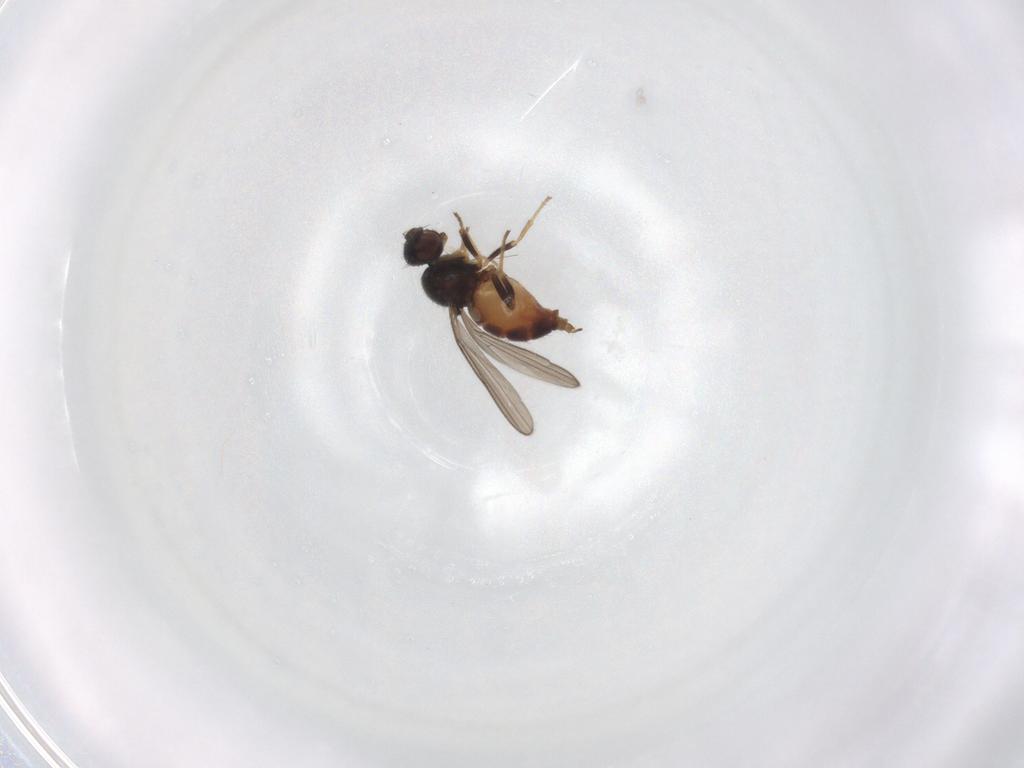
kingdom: Animalia
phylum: Arthropoda
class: Insecta
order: Diptera
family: Chloropidae
